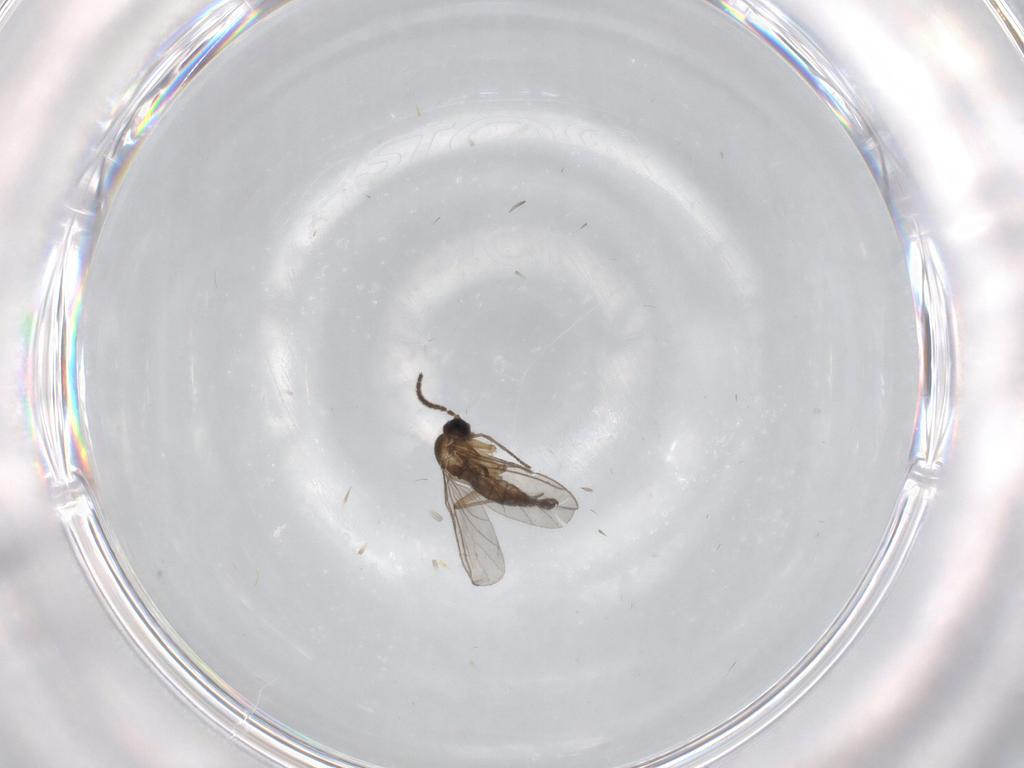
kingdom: Animalia
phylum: Arthropoda
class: Insecta
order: Diptera
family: Sciaridae
